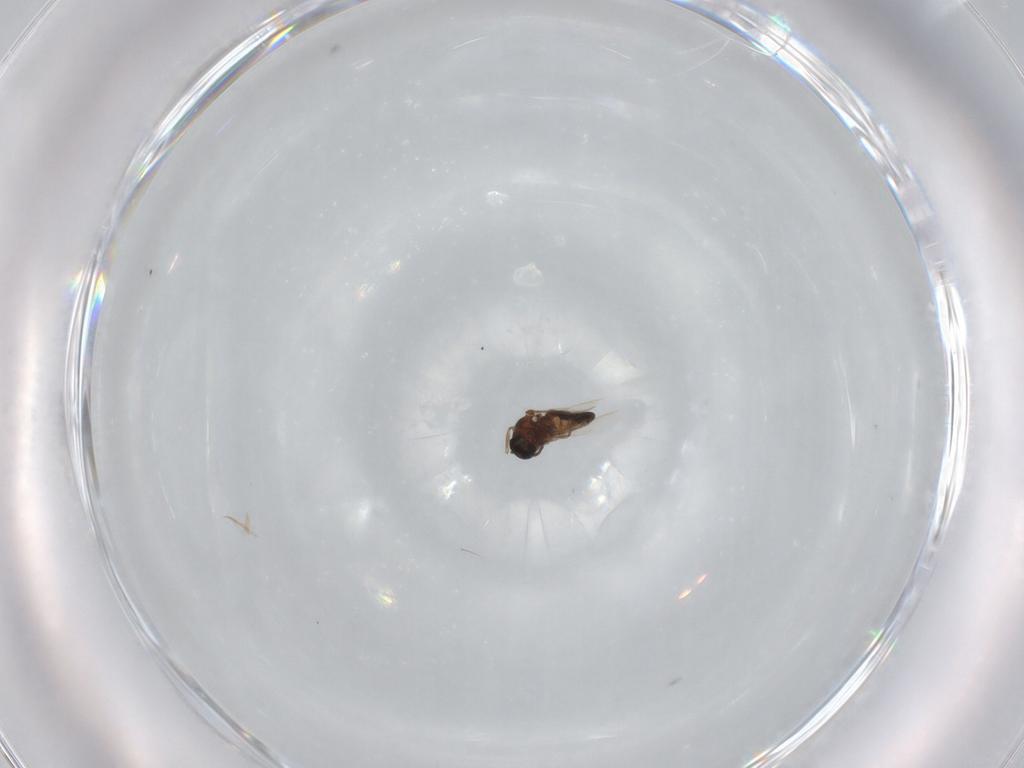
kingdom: Animalia
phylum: Arthropoda
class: Insecta
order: Diptera
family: Ceratopogonidae
